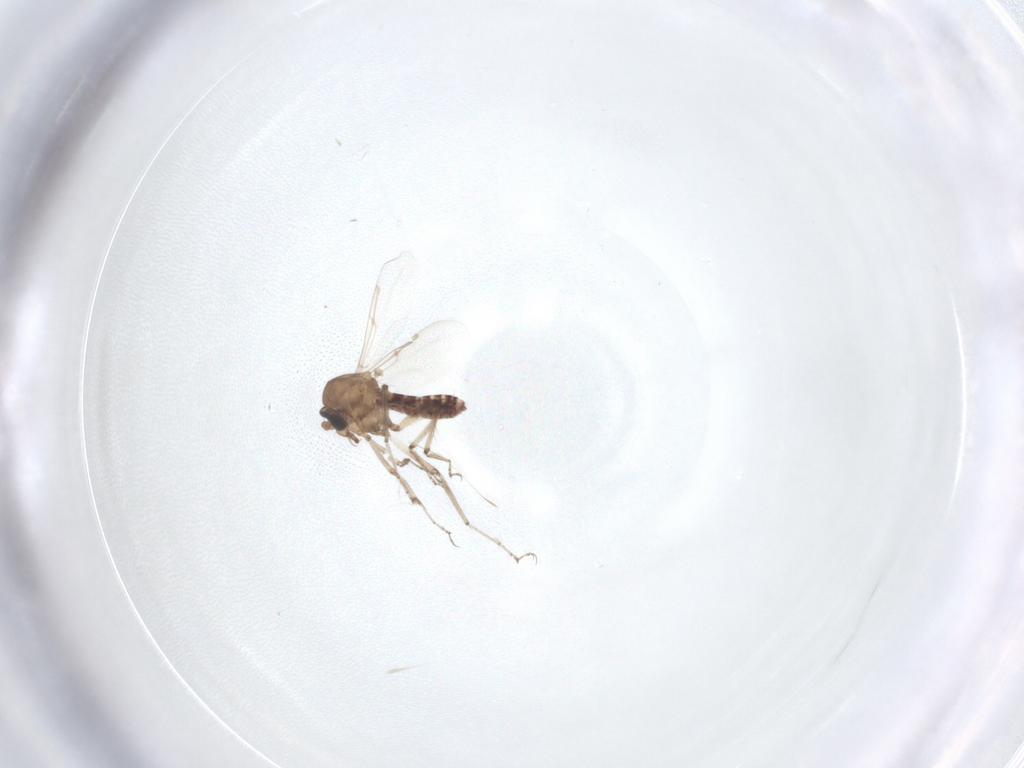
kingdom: Animalia
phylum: Arthropoda
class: Insecta
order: Diptera
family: Ceratopogonidae
